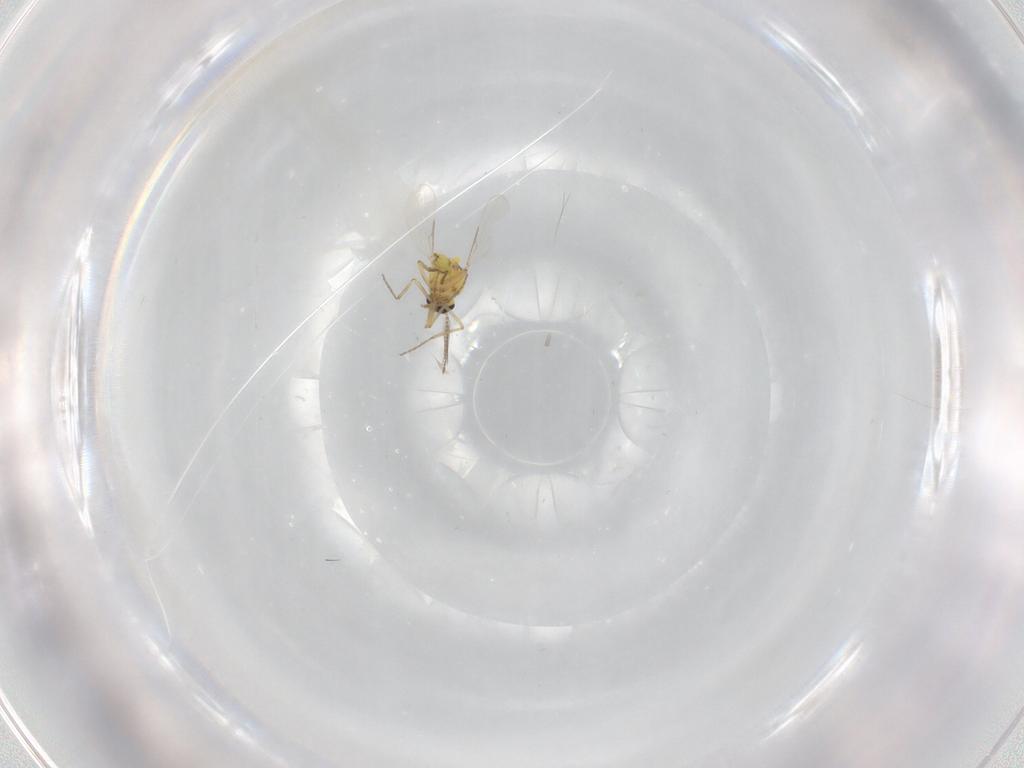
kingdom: Animalia
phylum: Arthropoda
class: Insecta
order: Diptera
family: Ceratopogonidae
